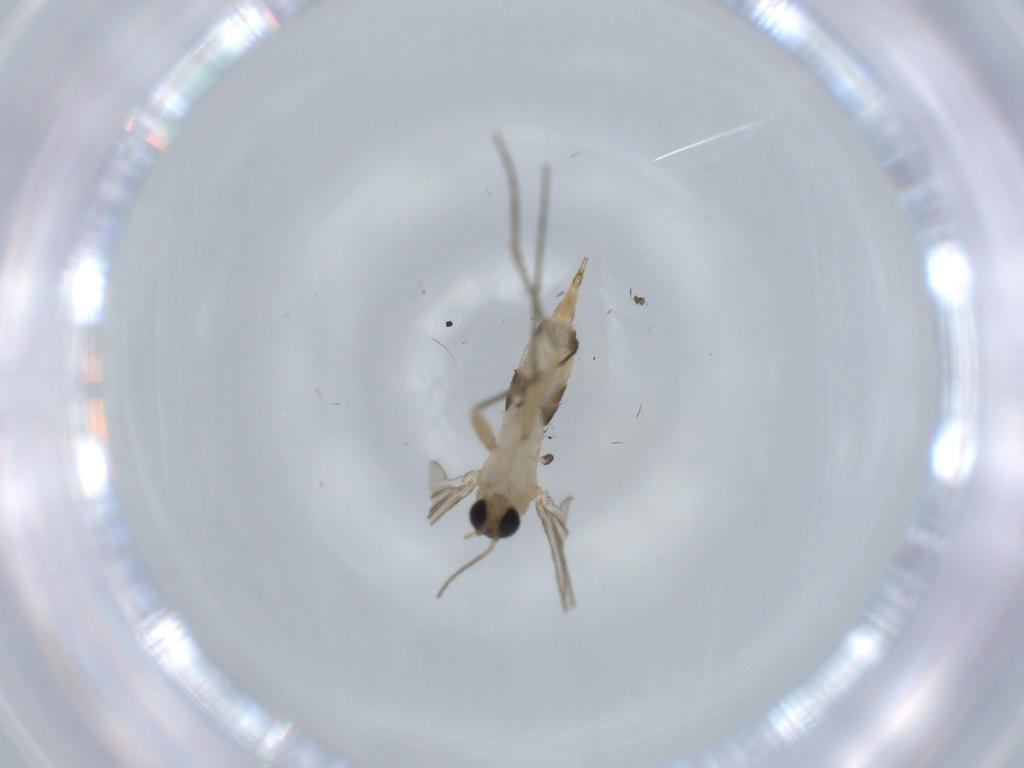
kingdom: Animalia
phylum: Arthropoda
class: Insecta
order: Diptera
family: Sciaridae
